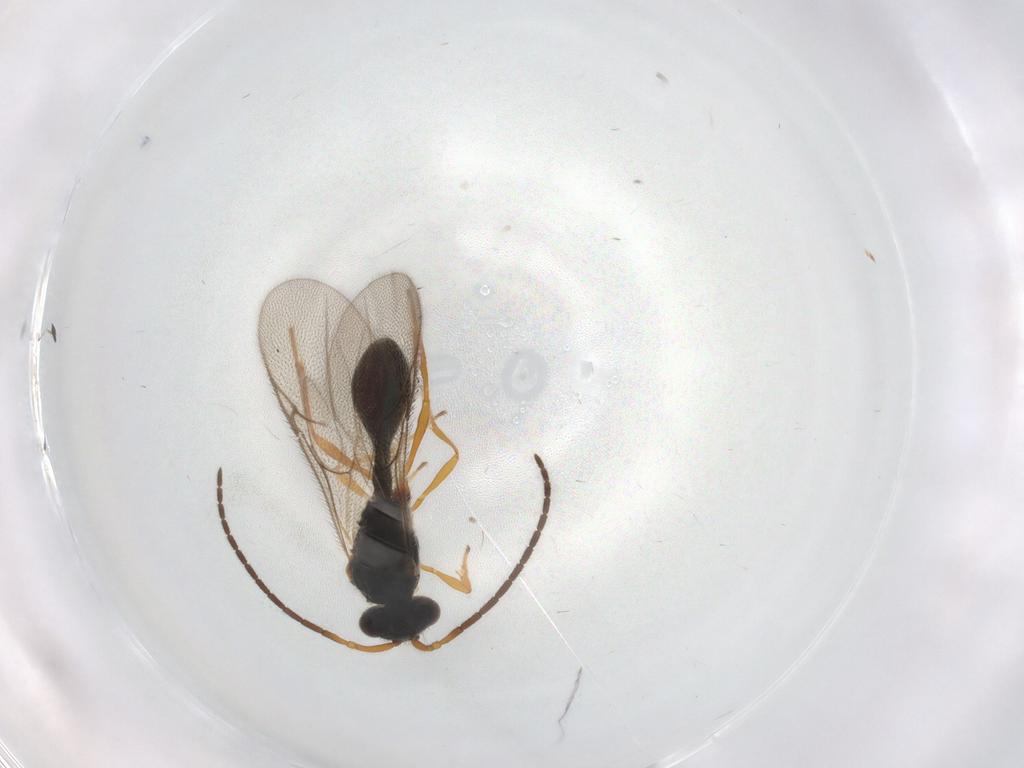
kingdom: Animalia
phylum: Arthropoda
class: Insecta
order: Hymenoptera
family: Diapriidae
